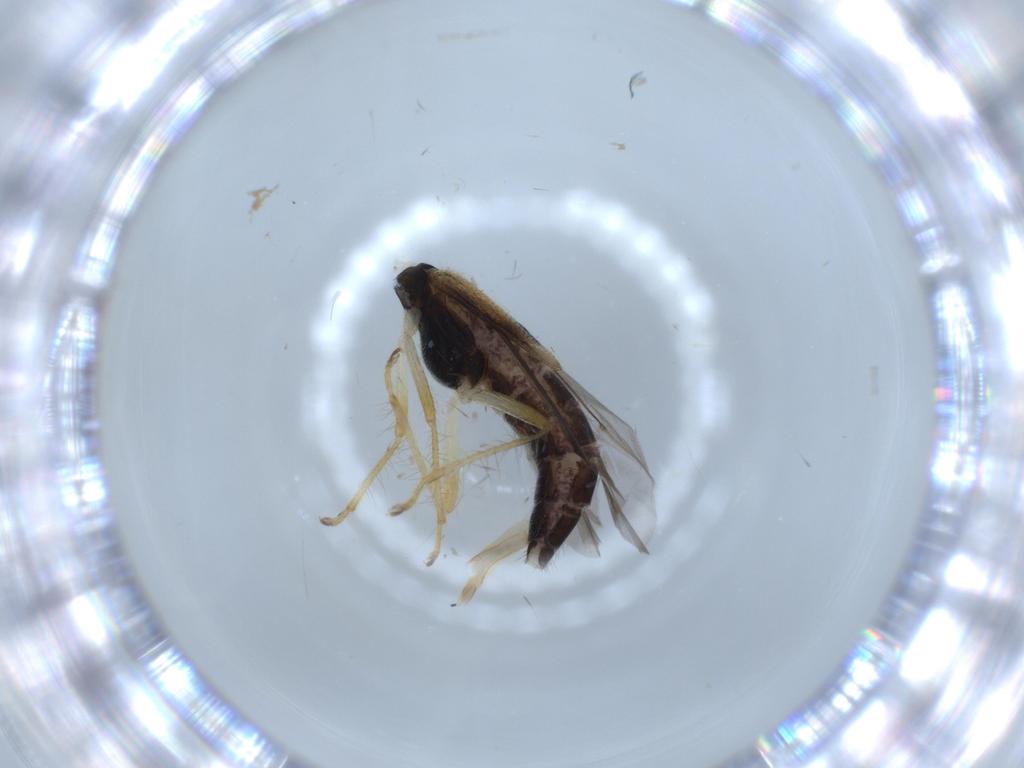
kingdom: Animalia
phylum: Arthropoda
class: Insecta
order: Coleoptera
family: Cleridae
